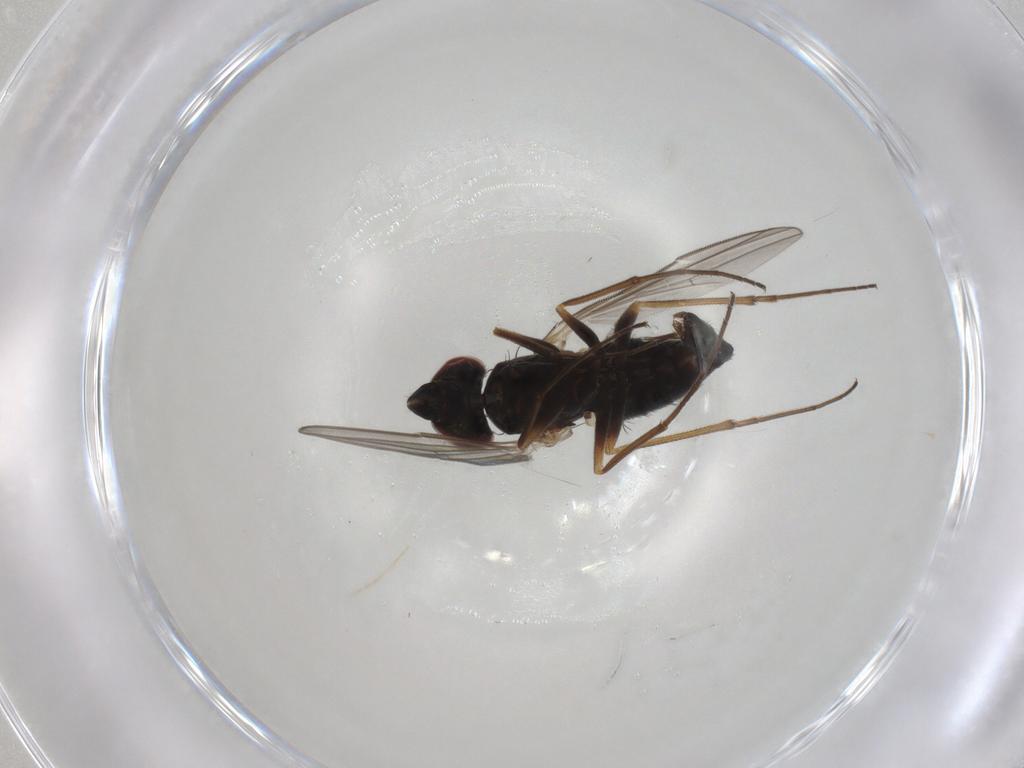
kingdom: Animalia
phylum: Arthropoda
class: Insecta
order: Diptera
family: Dolichopodidae
